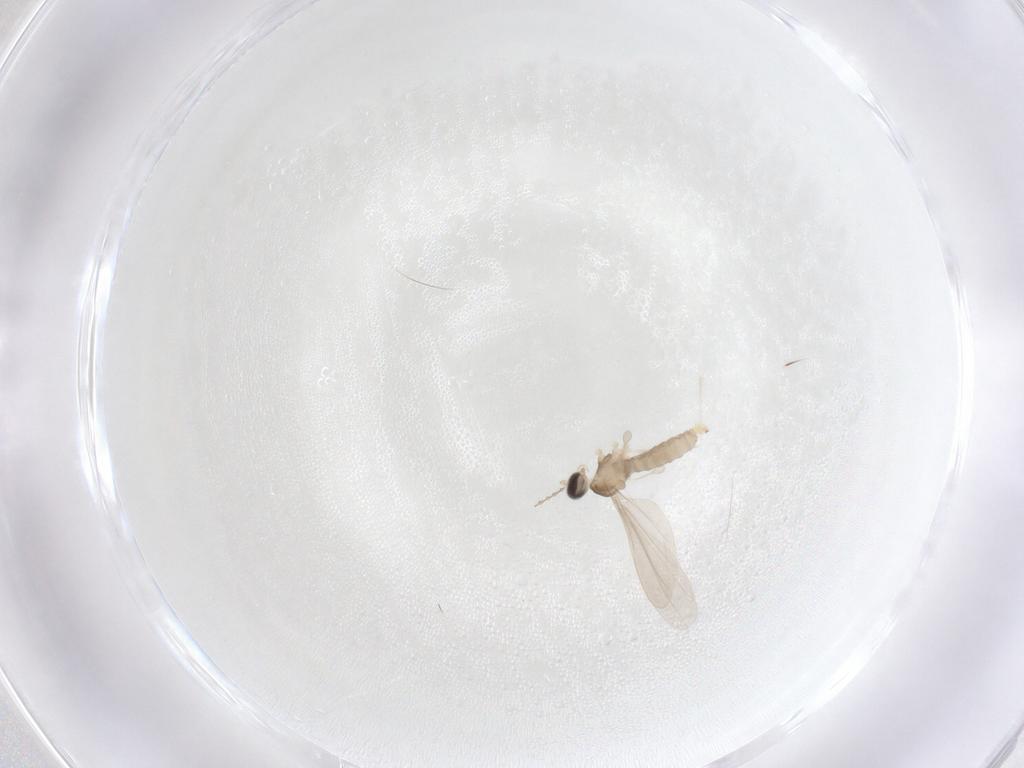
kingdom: Animalia
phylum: Arthropoda
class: Insecta
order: Diptera
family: Cecidomyiidae
